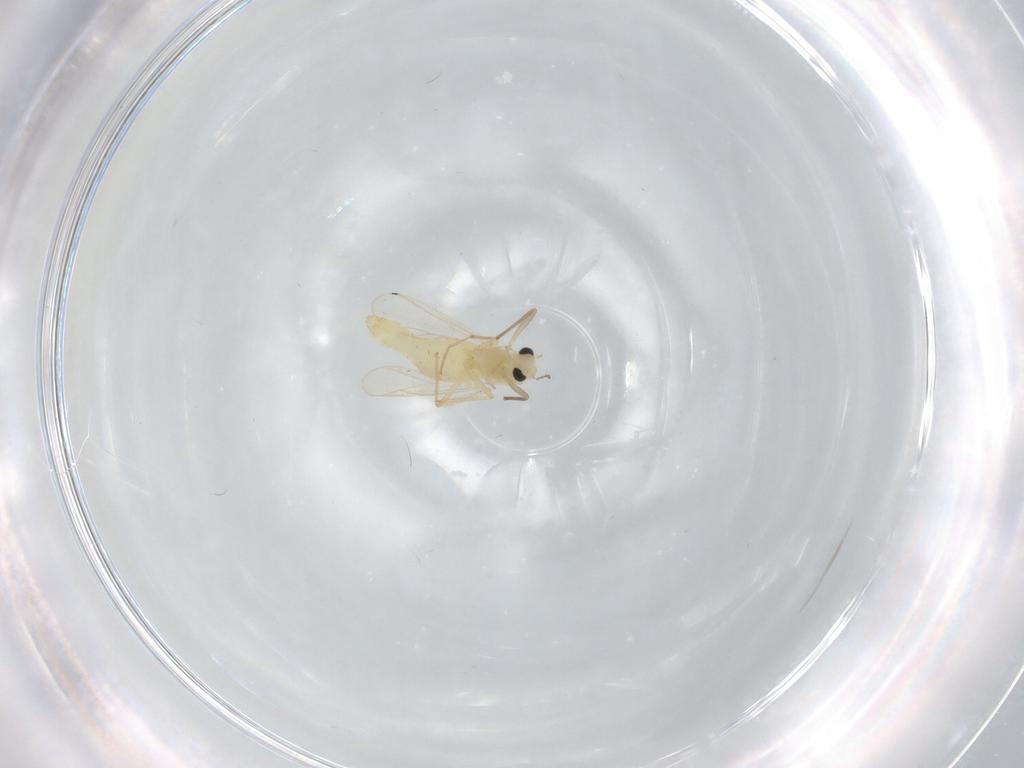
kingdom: Animalia
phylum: Arthropoda
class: Insecta
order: Diptera
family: Chironomidae
